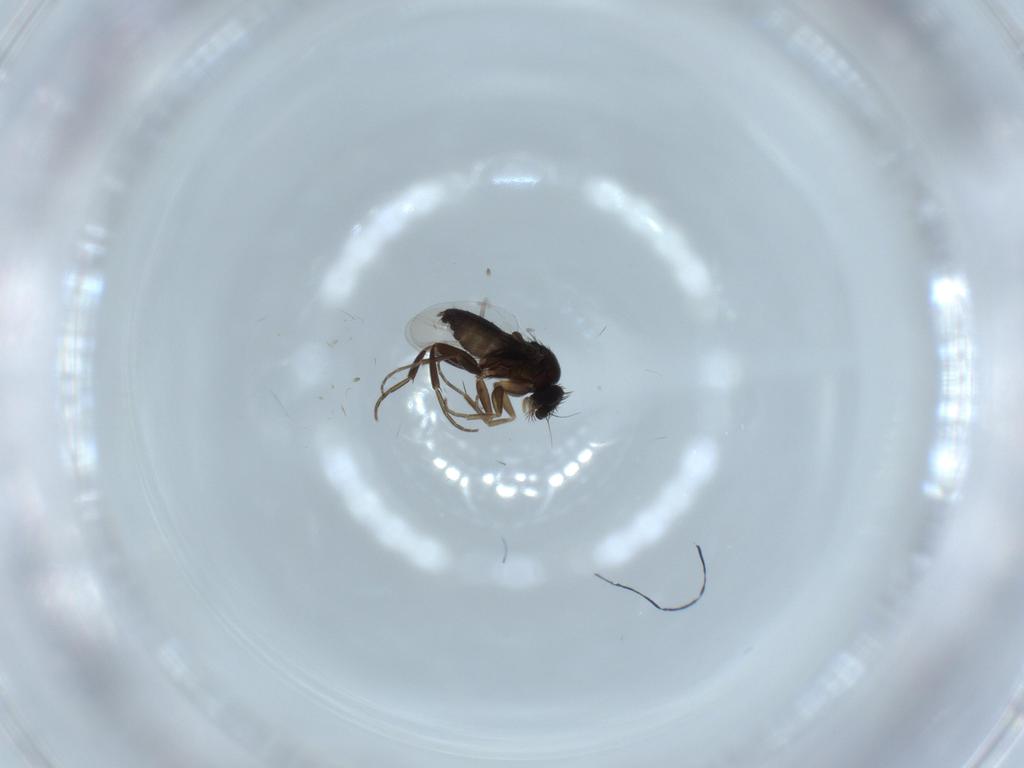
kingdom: Animalia
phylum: Arthropoda
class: Insecta
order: Diptera
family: Phoridae
